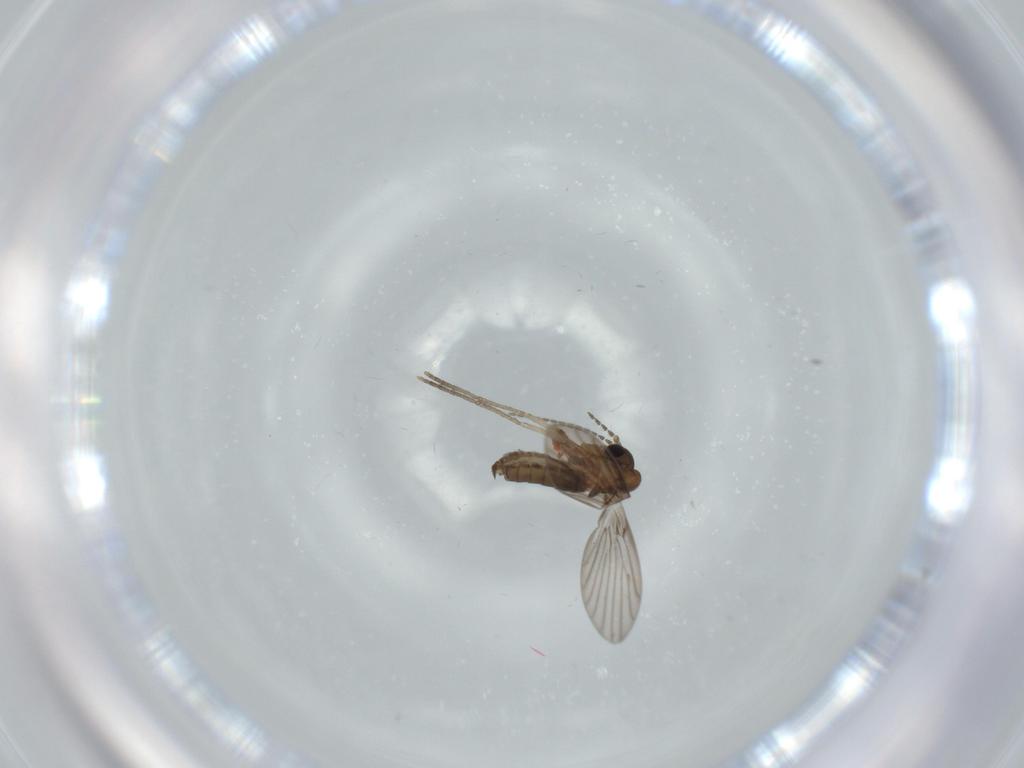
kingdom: Animalia
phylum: Arthropoda
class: Insecta
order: Diptera
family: Psychodidae
